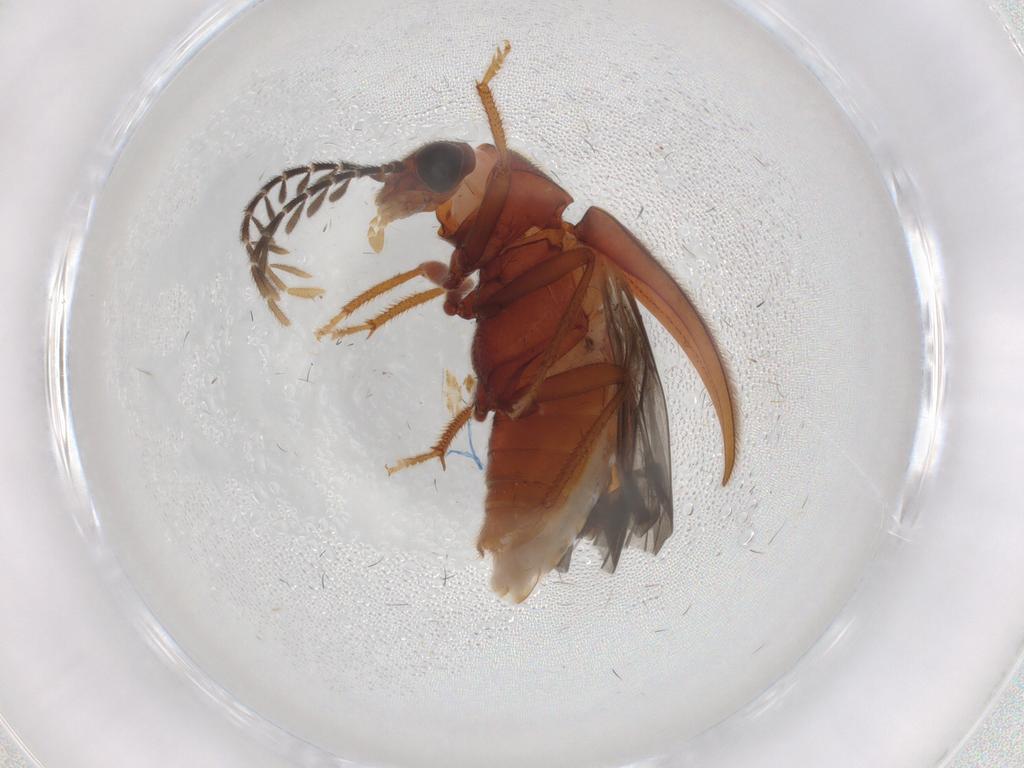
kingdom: Animalia
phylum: Arthropoda
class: Insecta
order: Coleoptera
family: Ptilodactylidae
